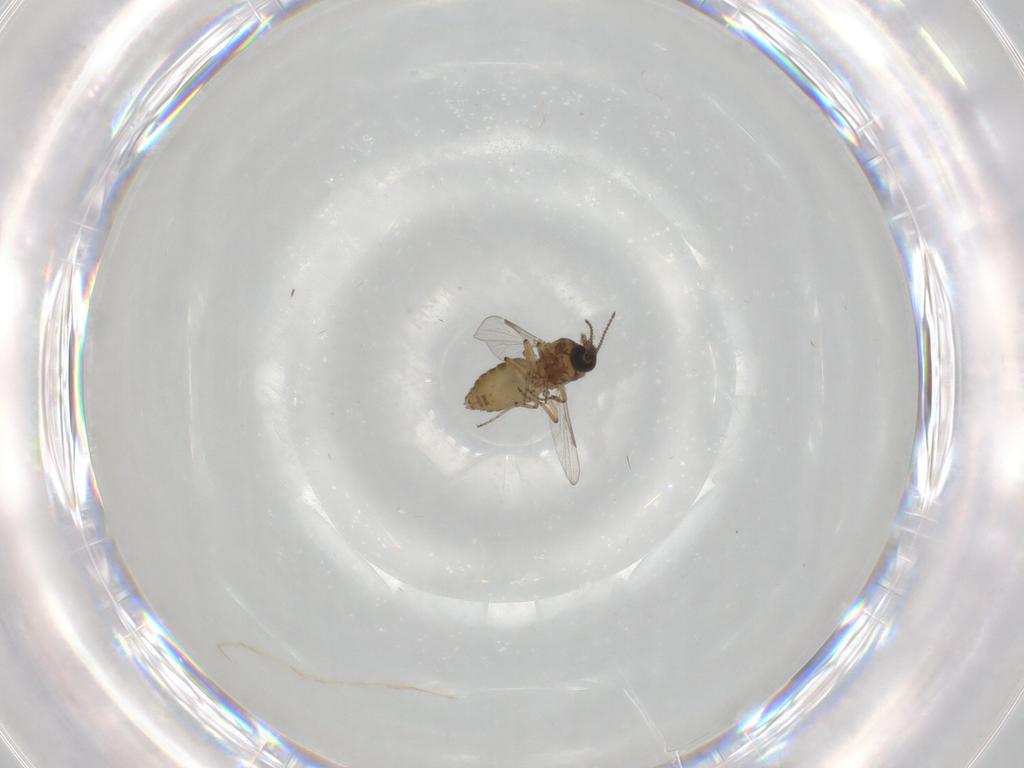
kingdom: Animalia
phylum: Arthropoda
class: Insecta
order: Diptera
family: Ceratopogonidae
